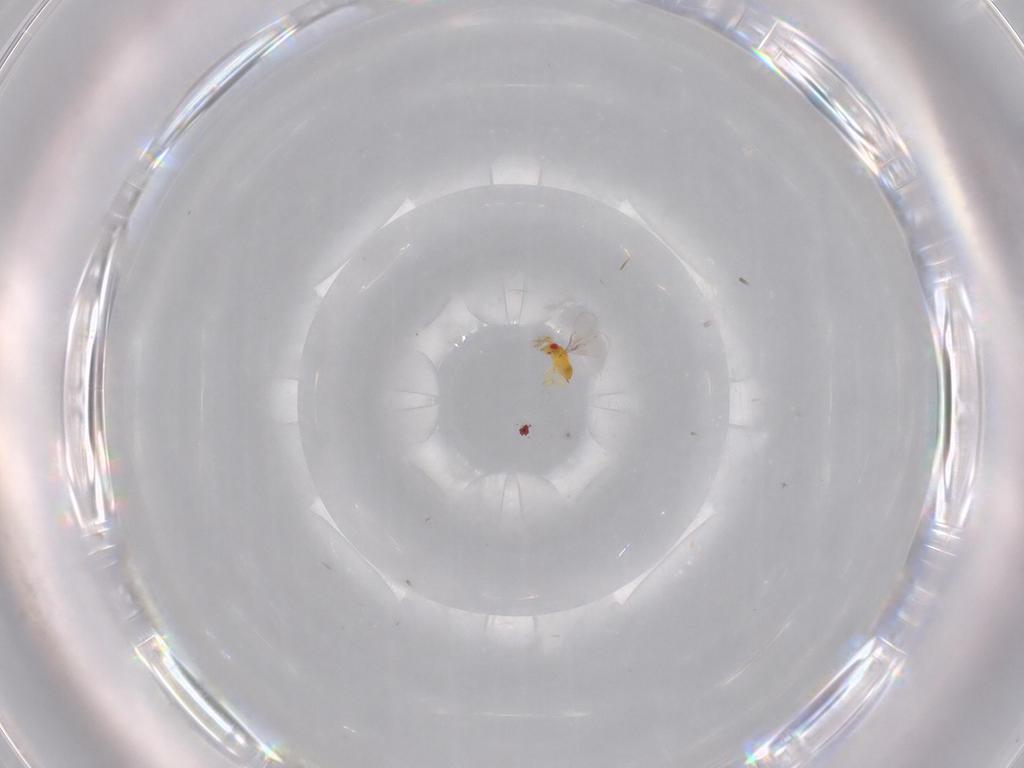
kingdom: Animalia
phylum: Arthropoda
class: Insecta
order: Hymenoptera
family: Trichogrammatidae
